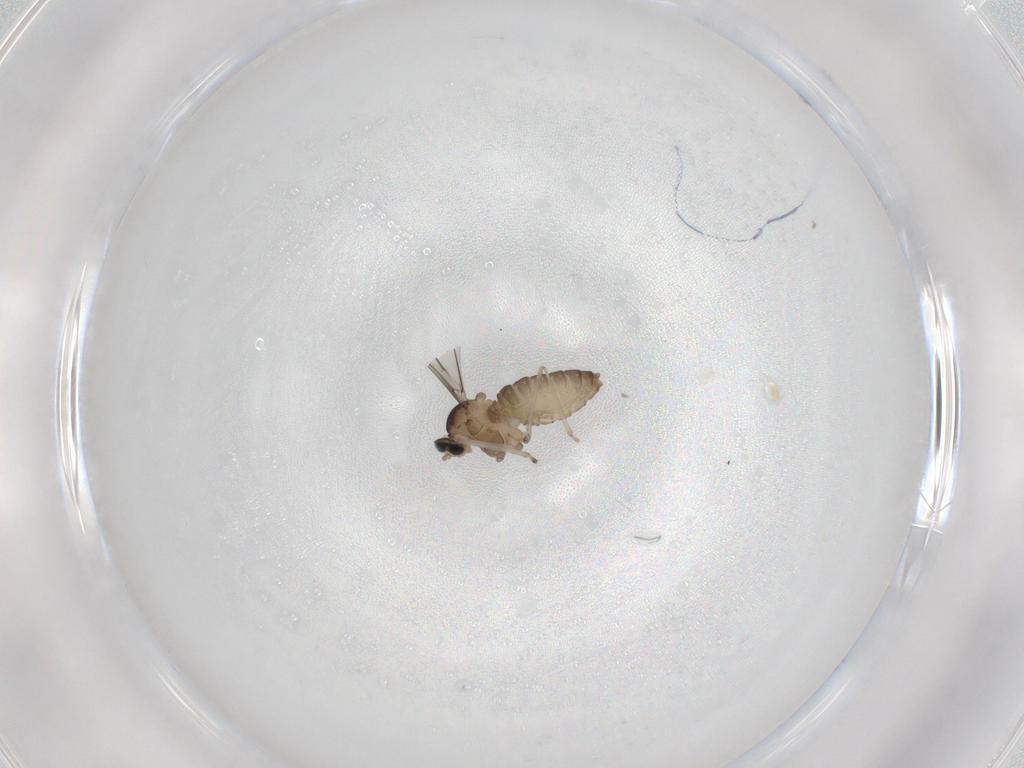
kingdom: Animalia
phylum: Arthropoda
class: Insecta
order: Diptera
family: Cecidomyiidae
